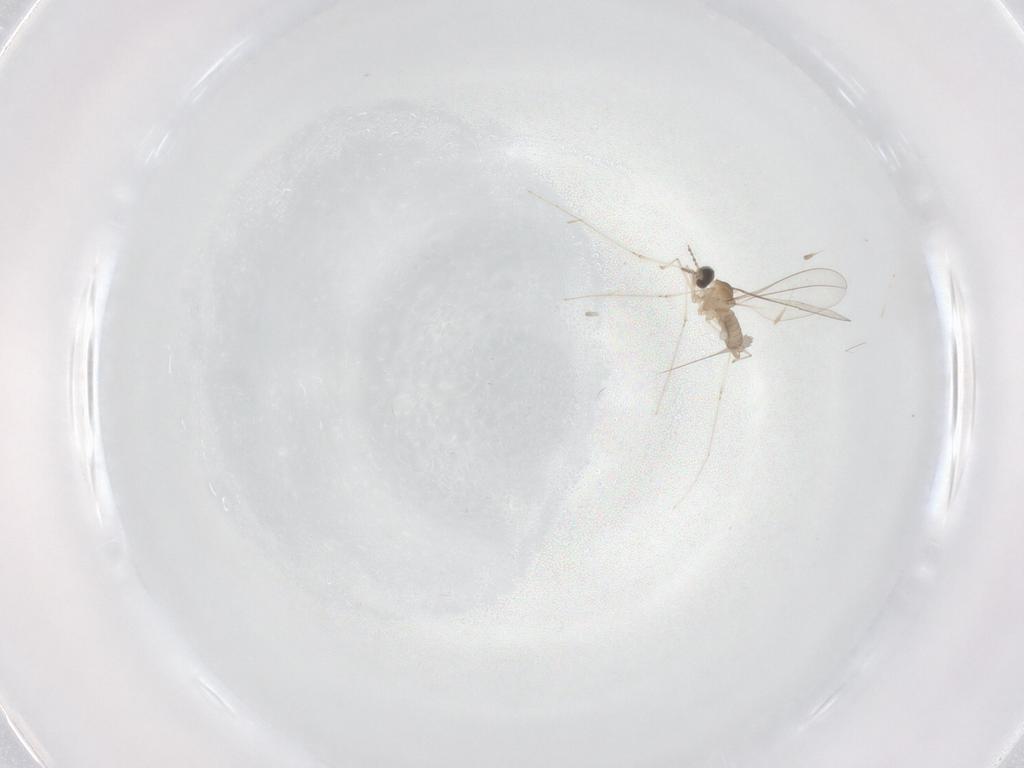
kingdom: Animalia
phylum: Arthropoda
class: Insecta
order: Diptera
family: Cecidomyiidae
